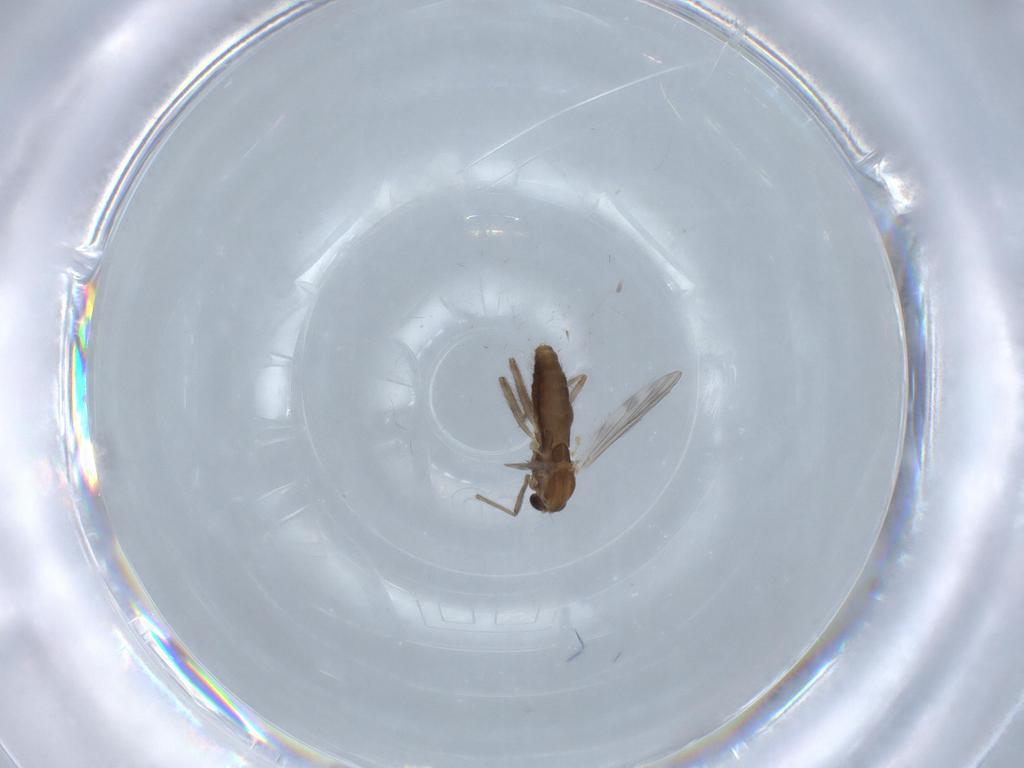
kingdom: Animalia
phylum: Arthropoda
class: Insecta
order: Diptera
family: Chironomidae
